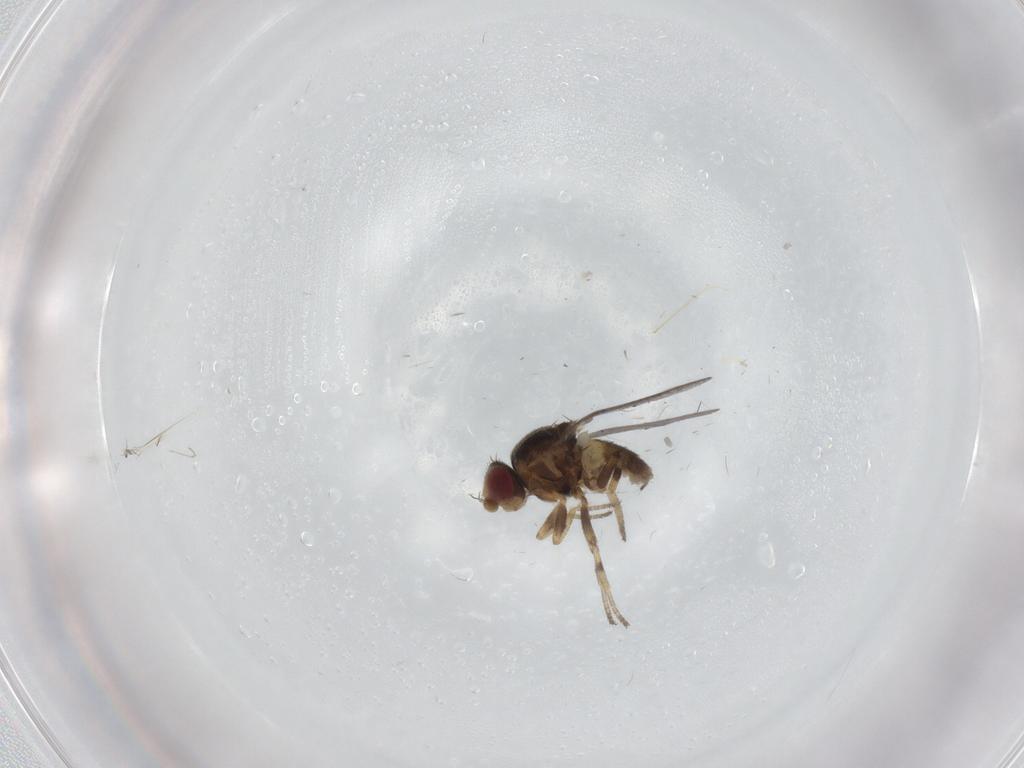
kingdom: Animalia
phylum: Arthropoda
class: Insecta
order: Diptera
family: Chloropidae
